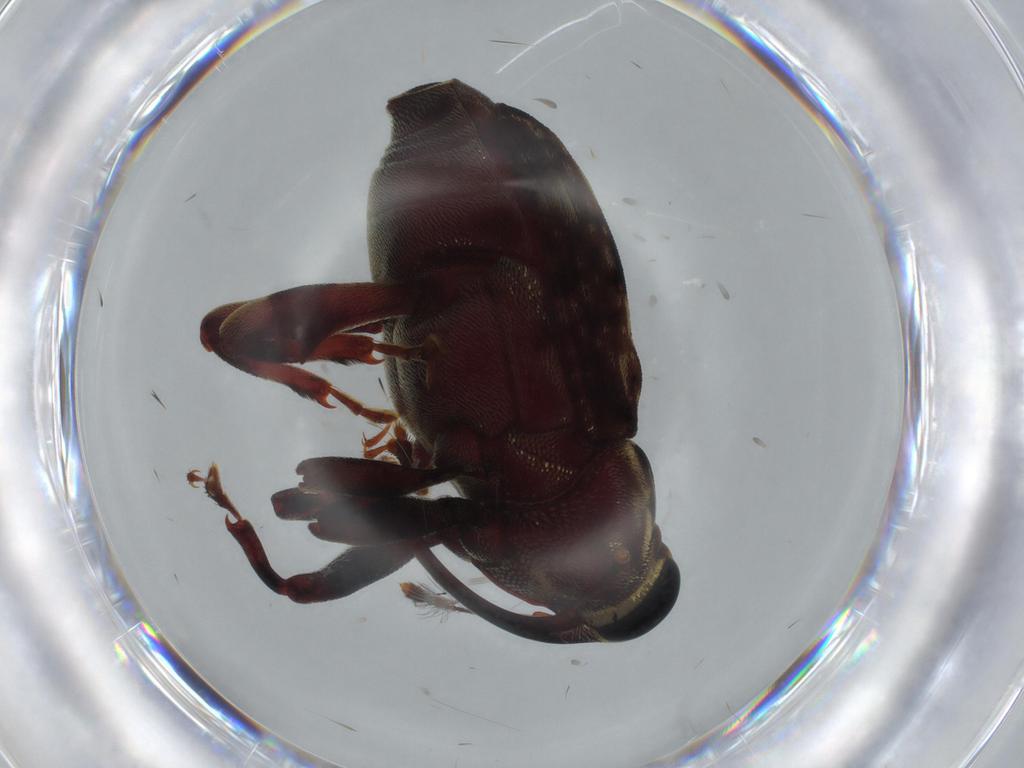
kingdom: Animalia
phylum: Arthropoda
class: Insecta
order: Coleoptera
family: Curculionidae
